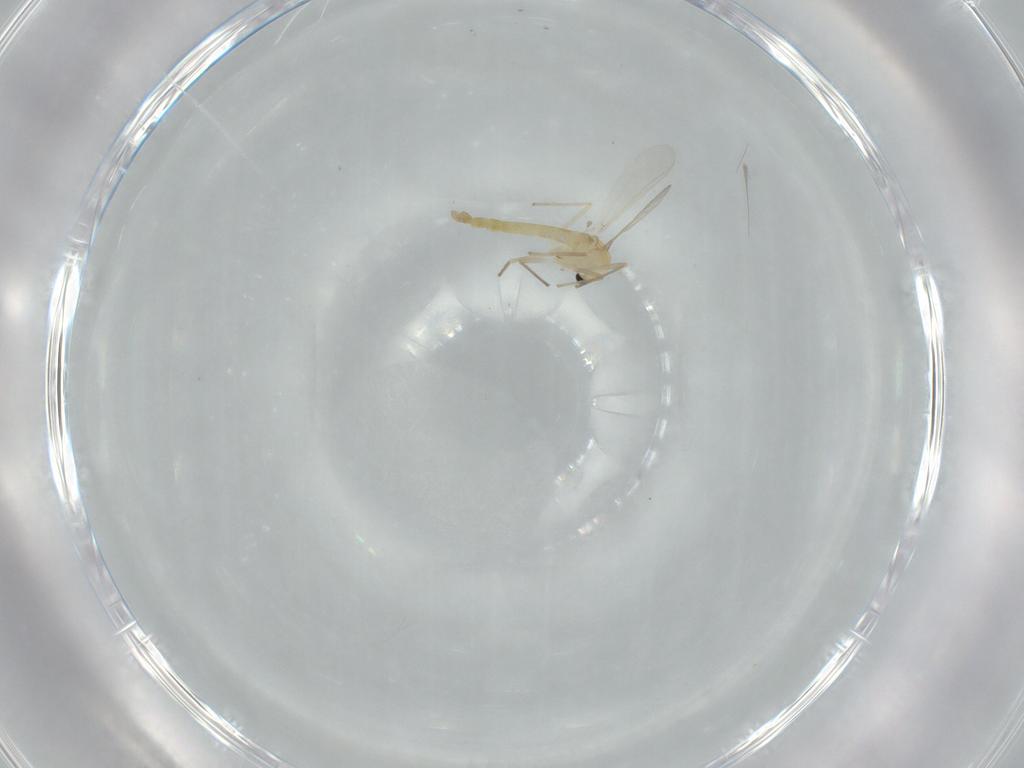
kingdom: Animalia
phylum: Arthropoda
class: Insecta
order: Diptera
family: Chironomidae
